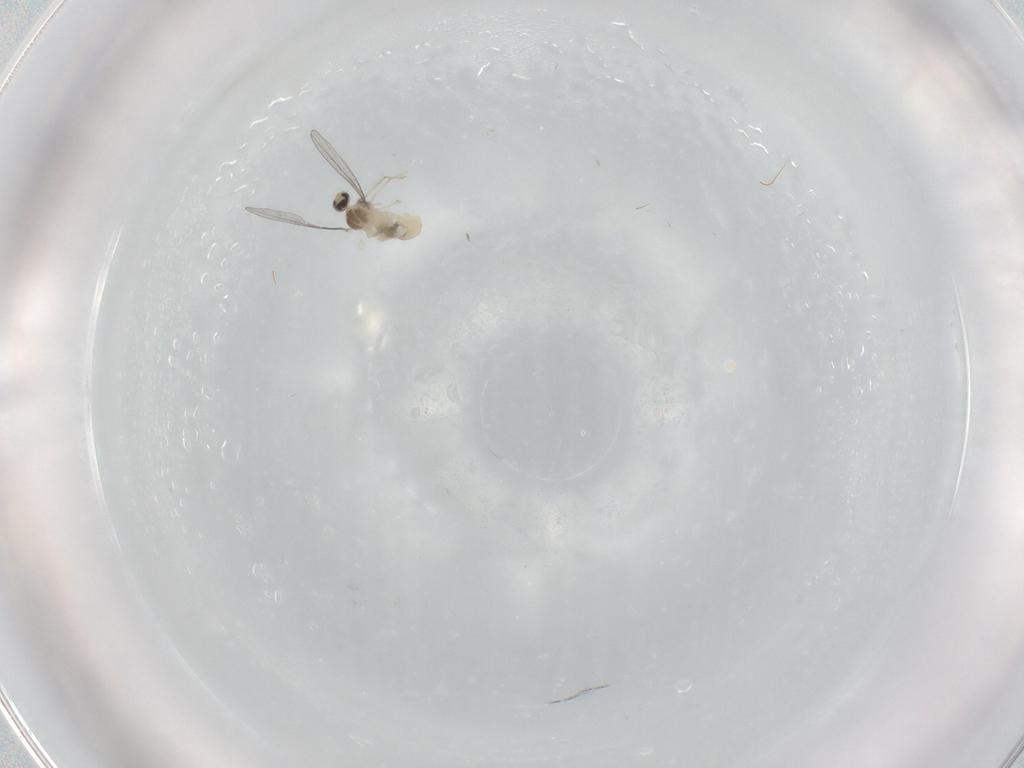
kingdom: Animalia
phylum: Arthropoda
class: Insecta
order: Diptera
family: Cecidomyiidae
